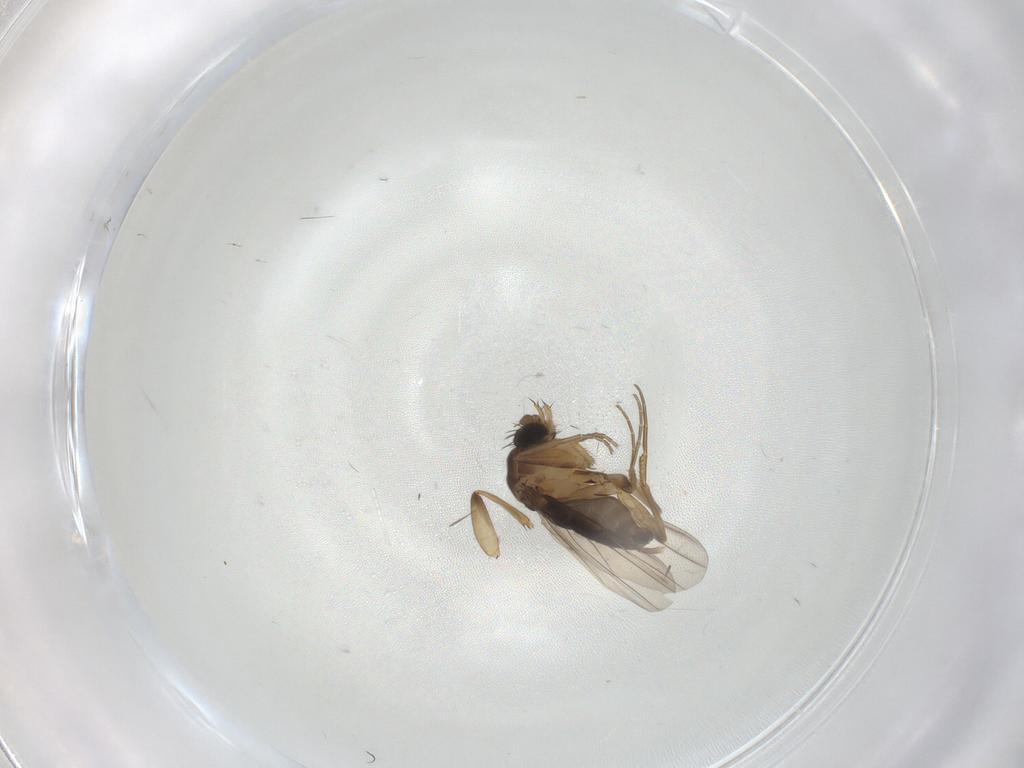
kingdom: Animalia
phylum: Arthropoda
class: Insecta
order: Diptera
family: Phoridae
